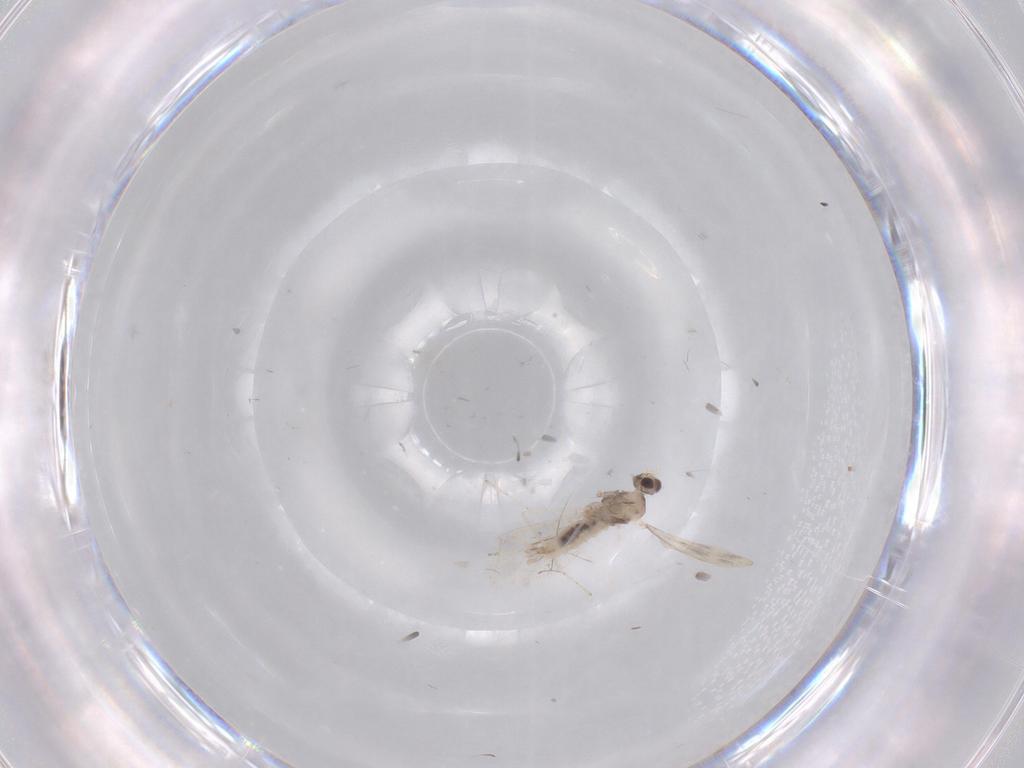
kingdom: Animalia
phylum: Arthropoda
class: Insecta
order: Diptera
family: Cecidomyiidae
